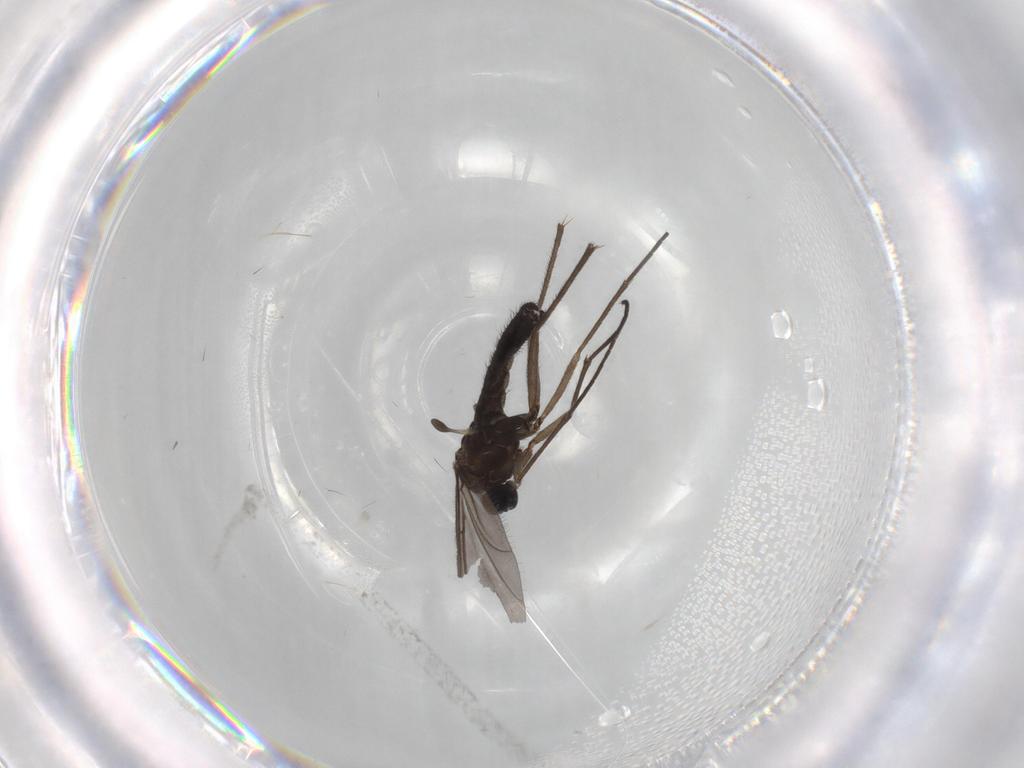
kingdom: Animalia
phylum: Arthropoda
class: Insecta
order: Diptera
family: Sciaridae
